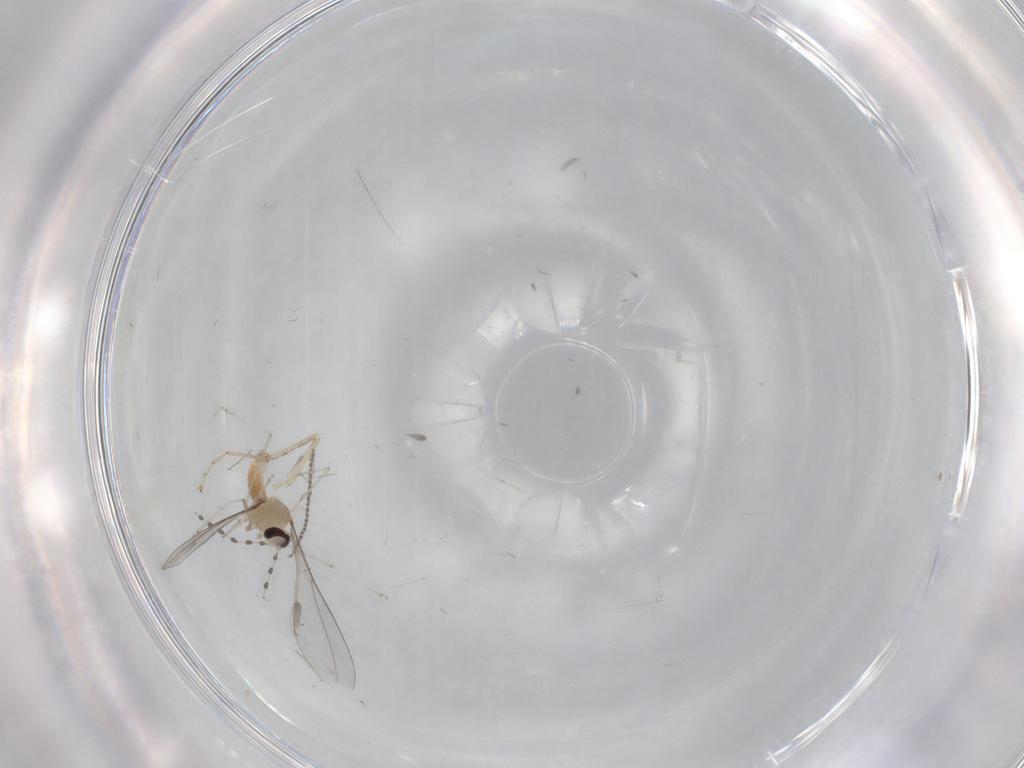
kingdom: Animalia
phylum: Arthropoda
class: Insecta
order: Diptera
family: Cecidomyiidae
